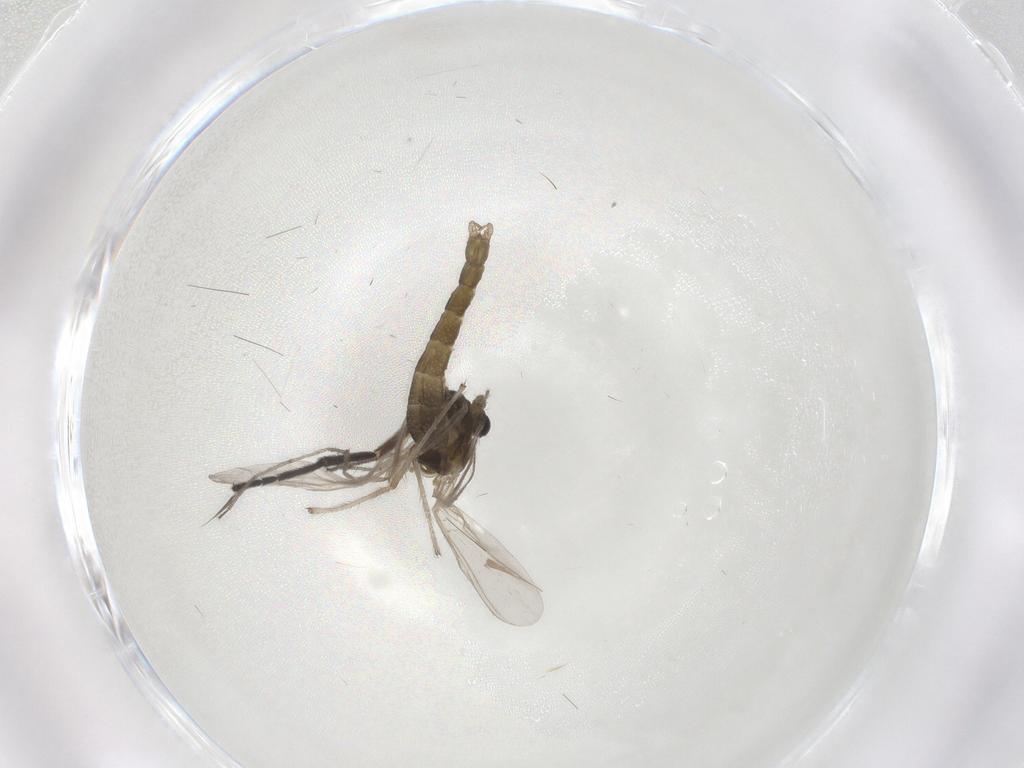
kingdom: Animalia
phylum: Arthropoda
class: Insecta
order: Diptera
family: Chironomidae
